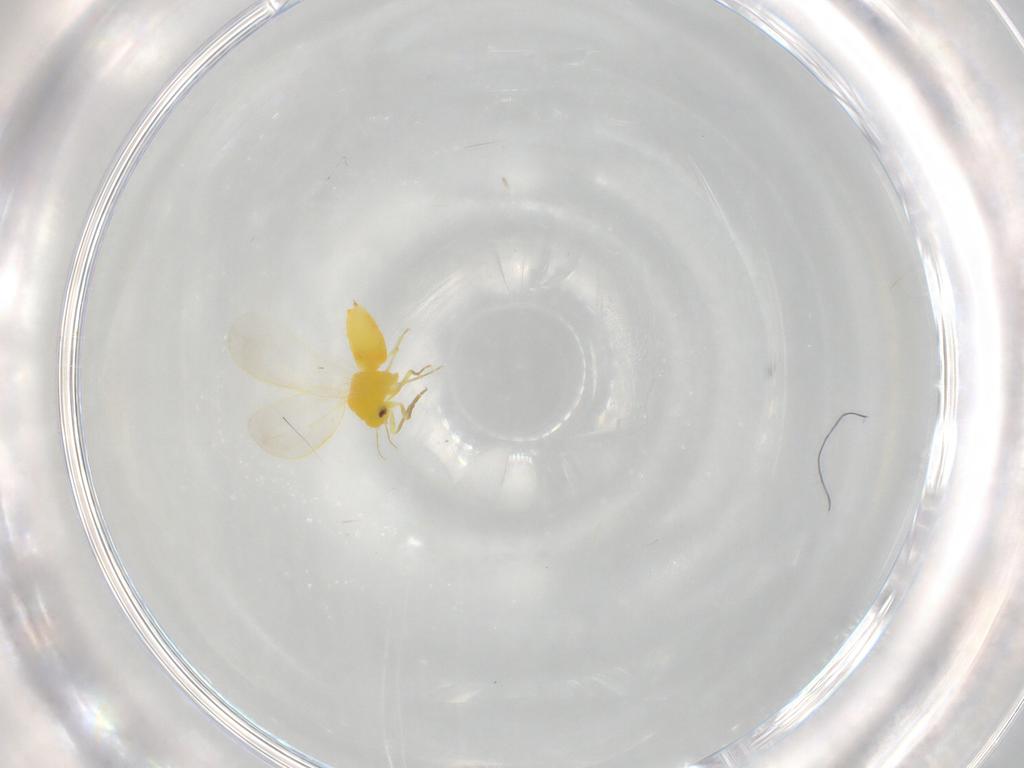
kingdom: Animalia
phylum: Arthropoda
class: Insecta
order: Hemiptera
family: Aleyrodidae
